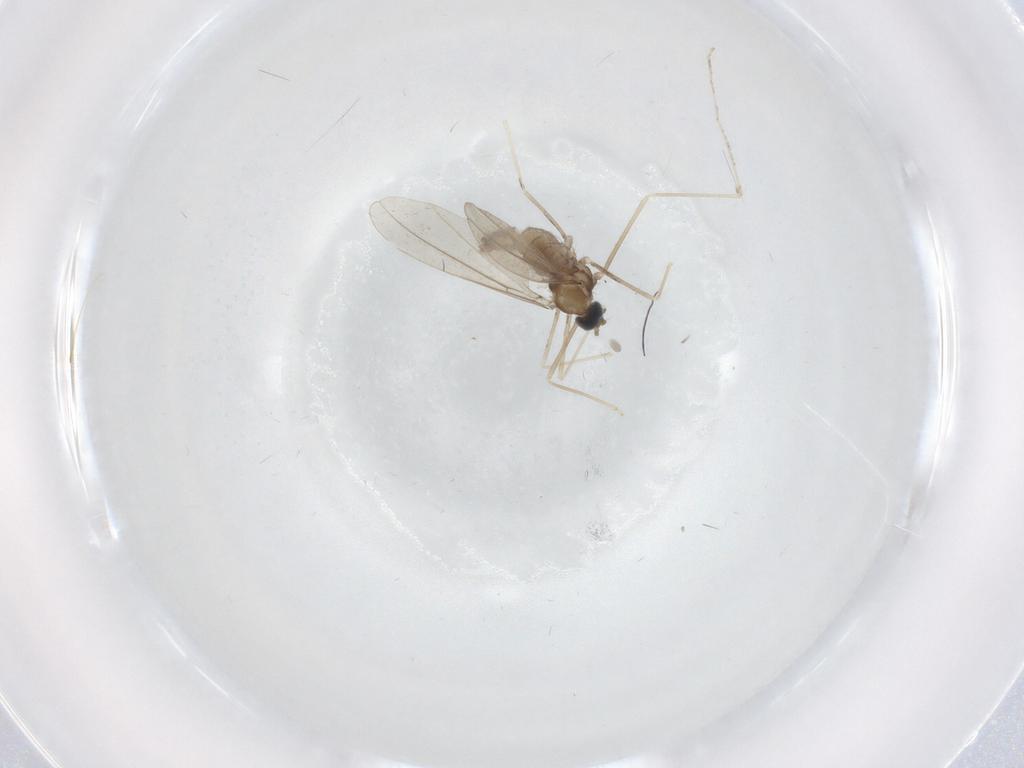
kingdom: Animalia
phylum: Arthropoda
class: Insecta
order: Diptera
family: Cecidomyiidae
